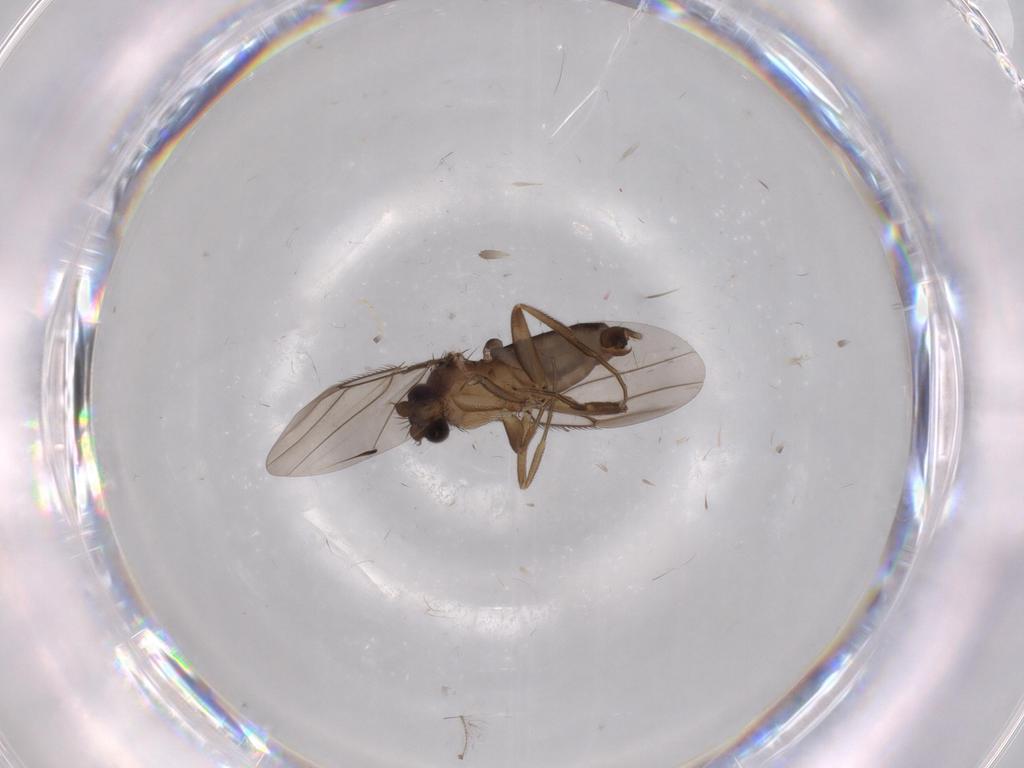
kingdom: Animalia
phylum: Arthropoda
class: Insecta
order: Diptera
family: Phoridae
